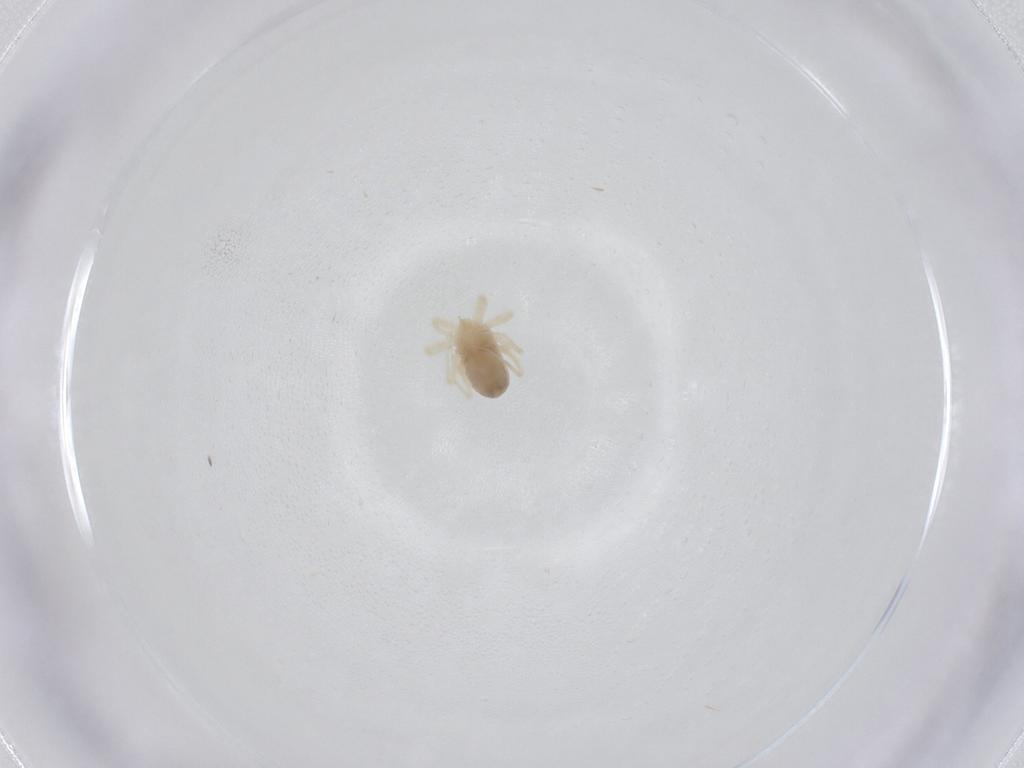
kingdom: Animalia
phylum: Arthropoda
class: Arachnida
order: Trombidiformes
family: Anystidae
